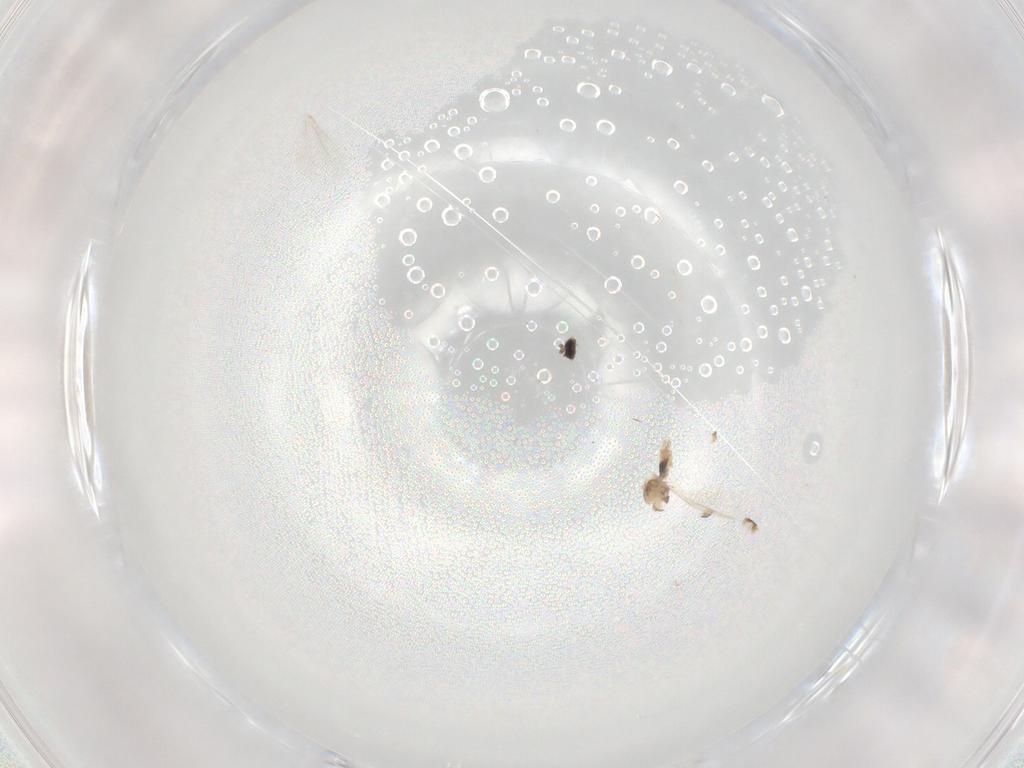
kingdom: Animalia
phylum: Arthropoda
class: Insecta
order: Diptera
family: Cecidomyiidae
